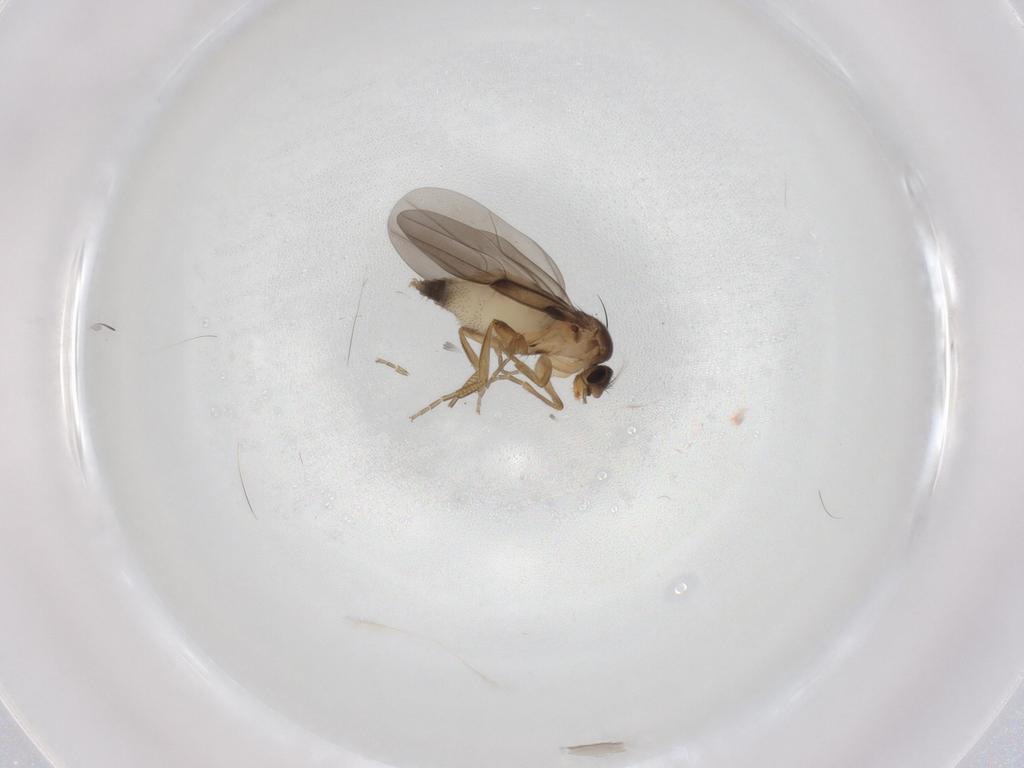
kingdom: Animalia
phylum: Arthropoda
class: Insecta
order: Diptera
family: Phoridae
